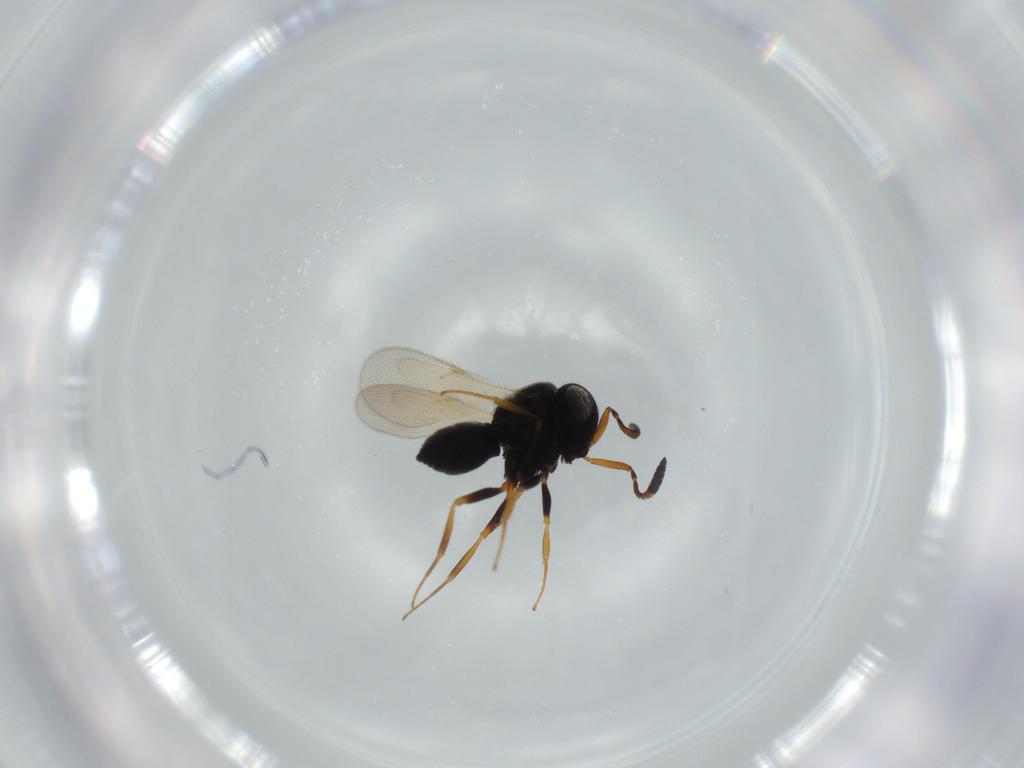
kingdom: Animalia
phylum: Arthropoda
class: Insecta
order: Hymenoptera
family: Scelionidae
